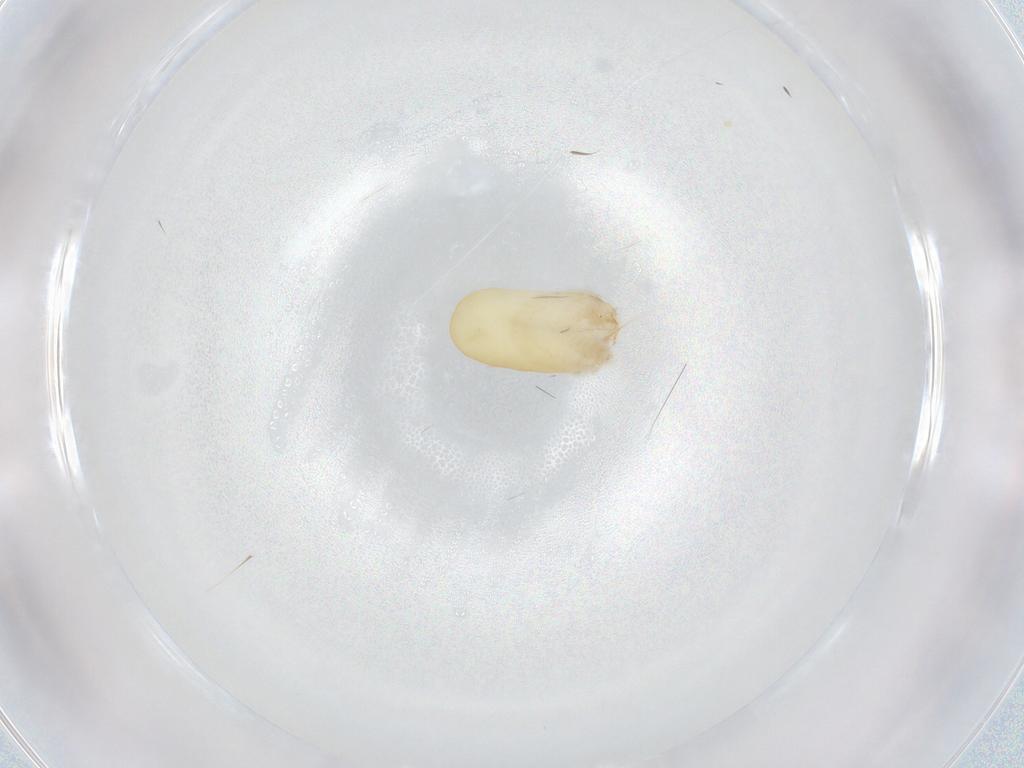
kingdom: Animalia
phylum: Arthropoda
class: Insecta
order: Hymenoptera
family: Dryinidae
